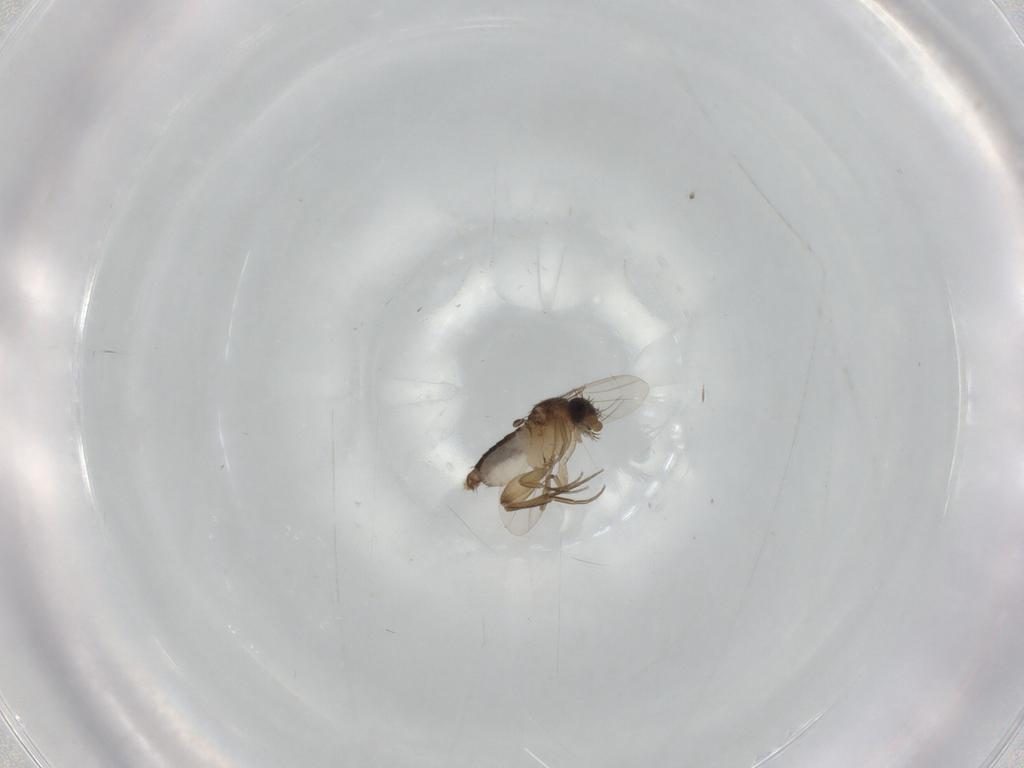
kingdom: Animalia
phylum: Arthropoda
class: Insecta
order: Diptera
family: Phoridae
